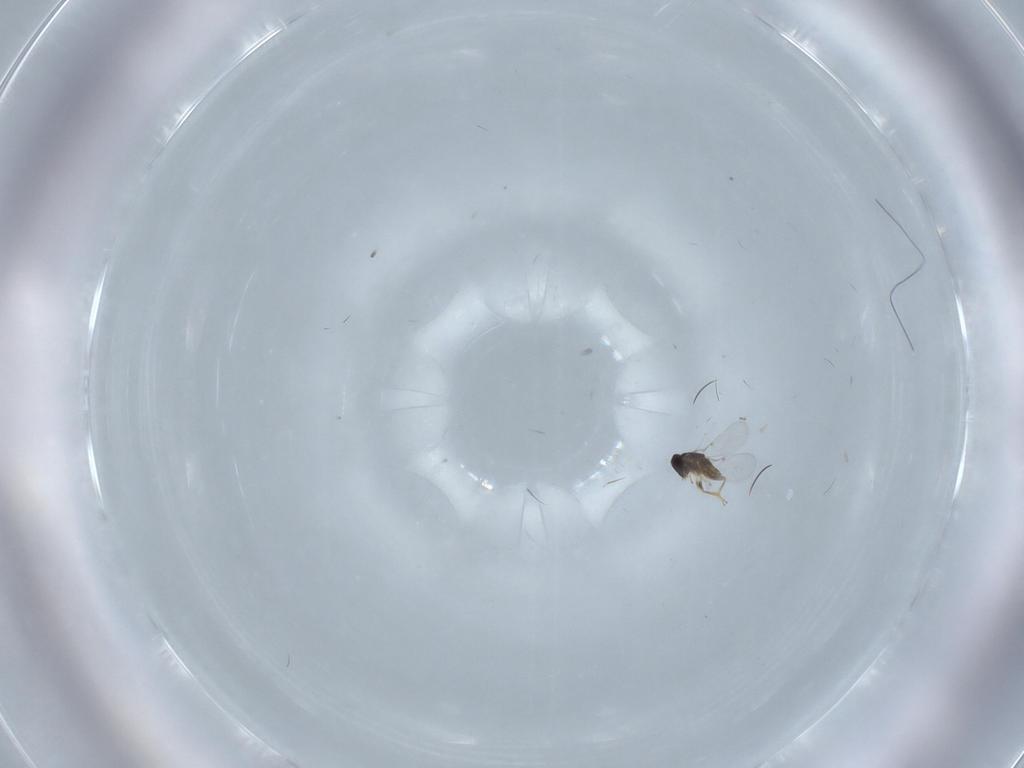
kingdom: Animalia
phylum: Arthropoda
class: Insecta
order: Hymenoptera
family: Encyrtidae
